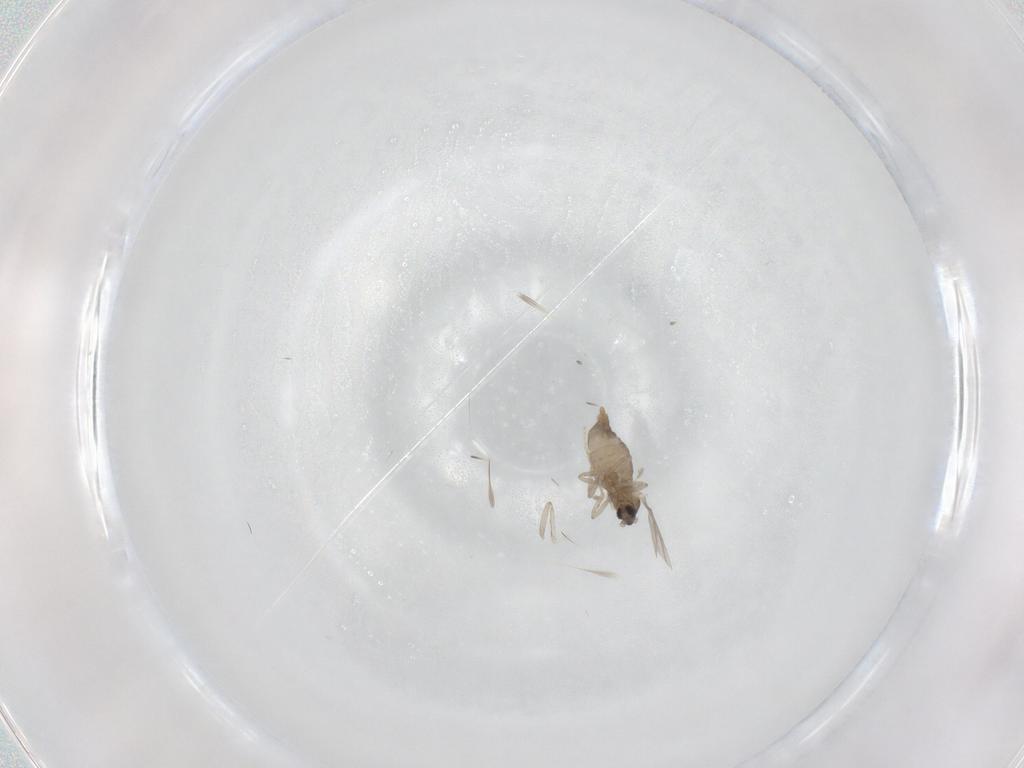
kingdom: Animalia
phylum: Arthropoda
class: Insecta
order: Diptera
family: Cecidomyiidae
